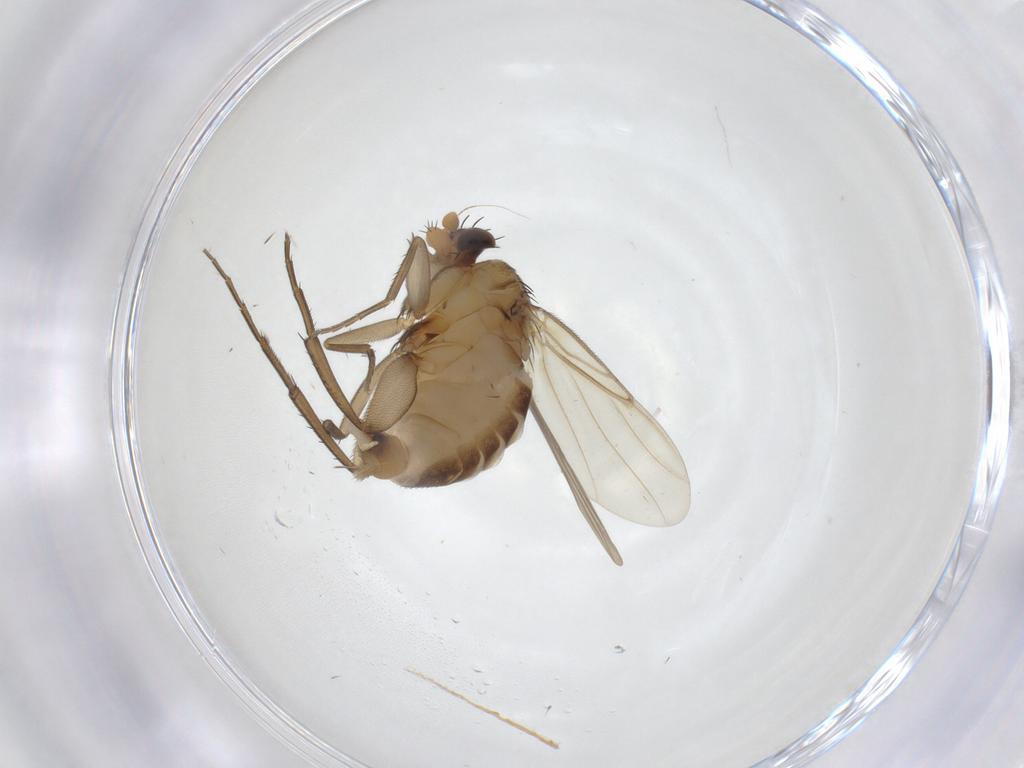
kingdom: Animalia
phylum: Arthropoda
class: Insecta
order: Diptera
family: Phoridae
